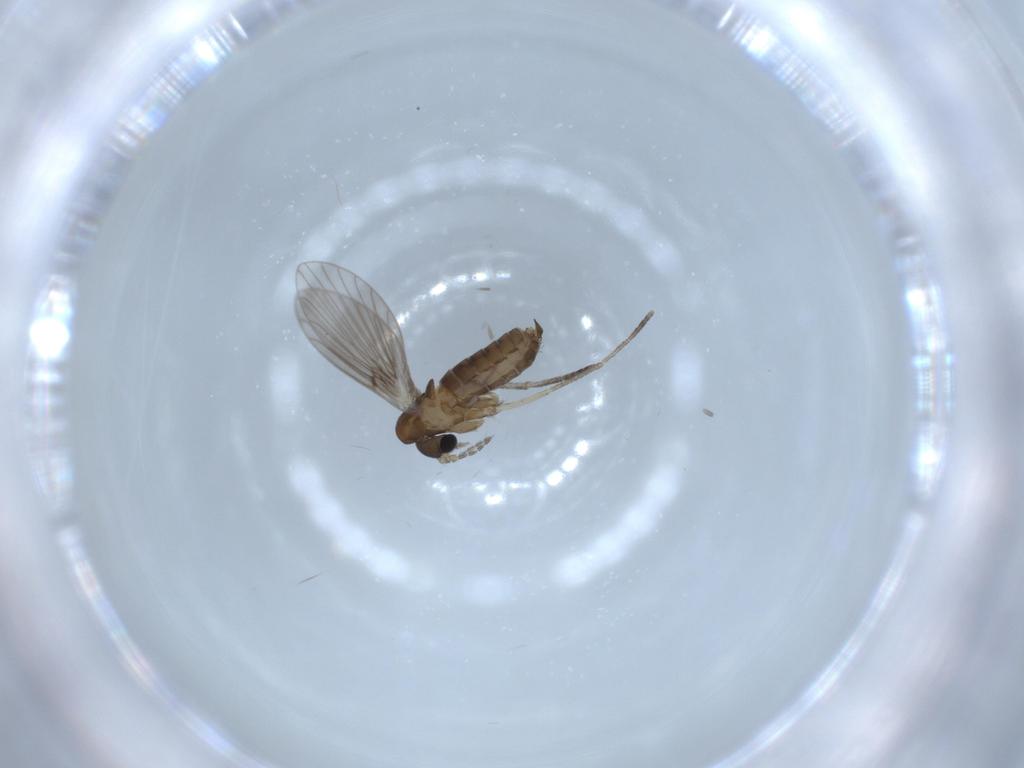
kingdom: Animalia
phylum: Arthropoda
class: Insecta
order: Diptera
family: Psychodidae
